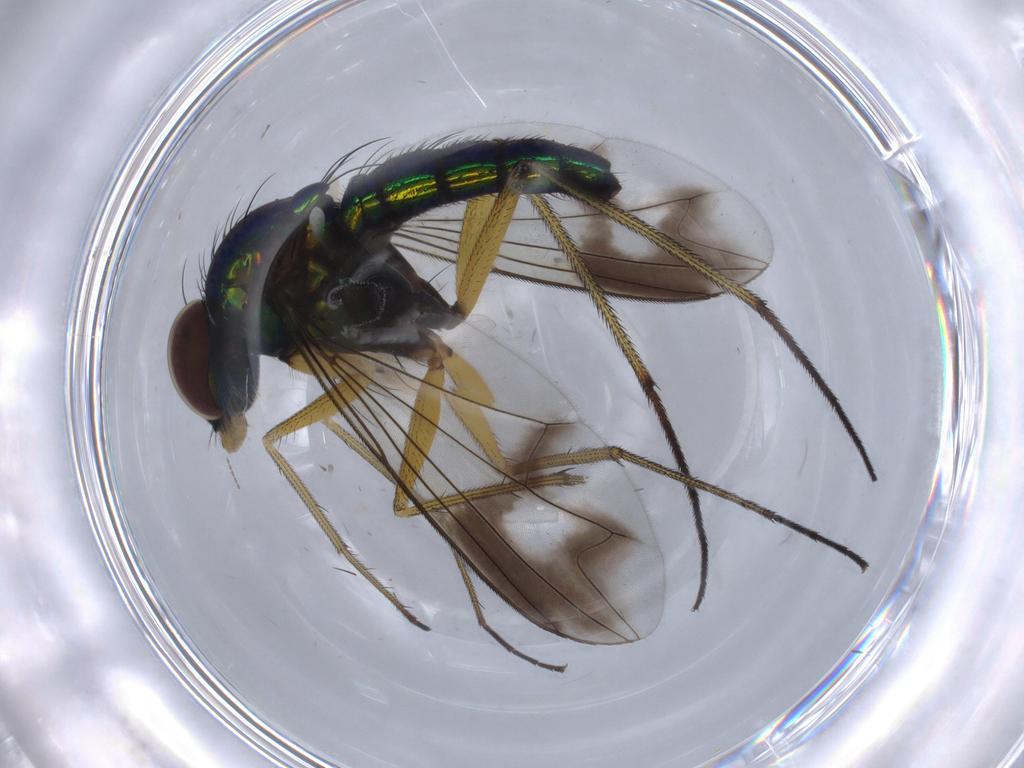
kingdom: Animalia
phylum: Arthropoda
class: Insecta
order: Diptera
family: Dolichopodidae
